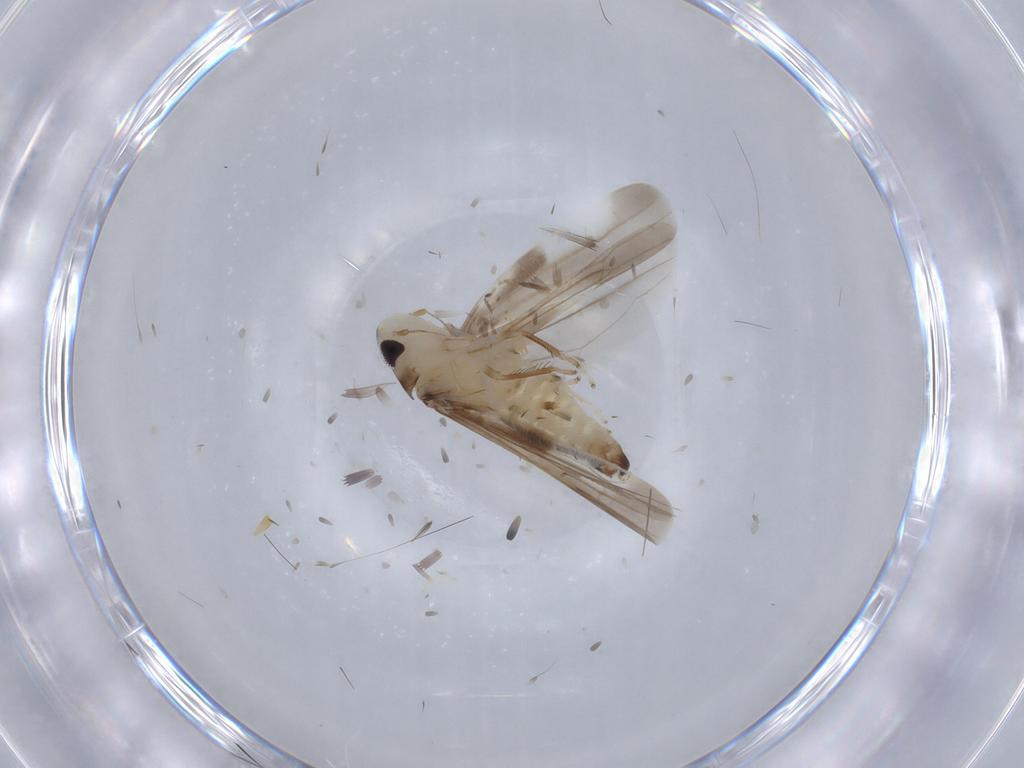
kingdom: Animalia
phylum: Arthropoda
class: Insecta
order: Hemiptera
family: Cicadellidae
